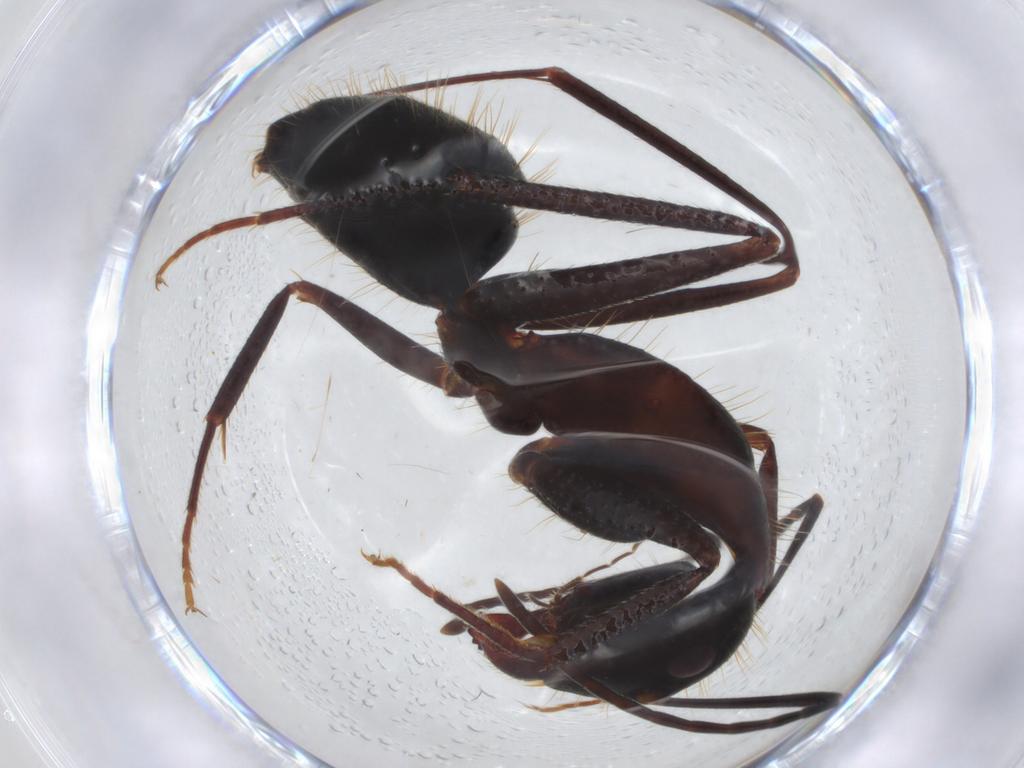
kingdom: Animalia
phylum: Arthropoda
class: Insecta
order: Hymenoptera
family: Formicidae
